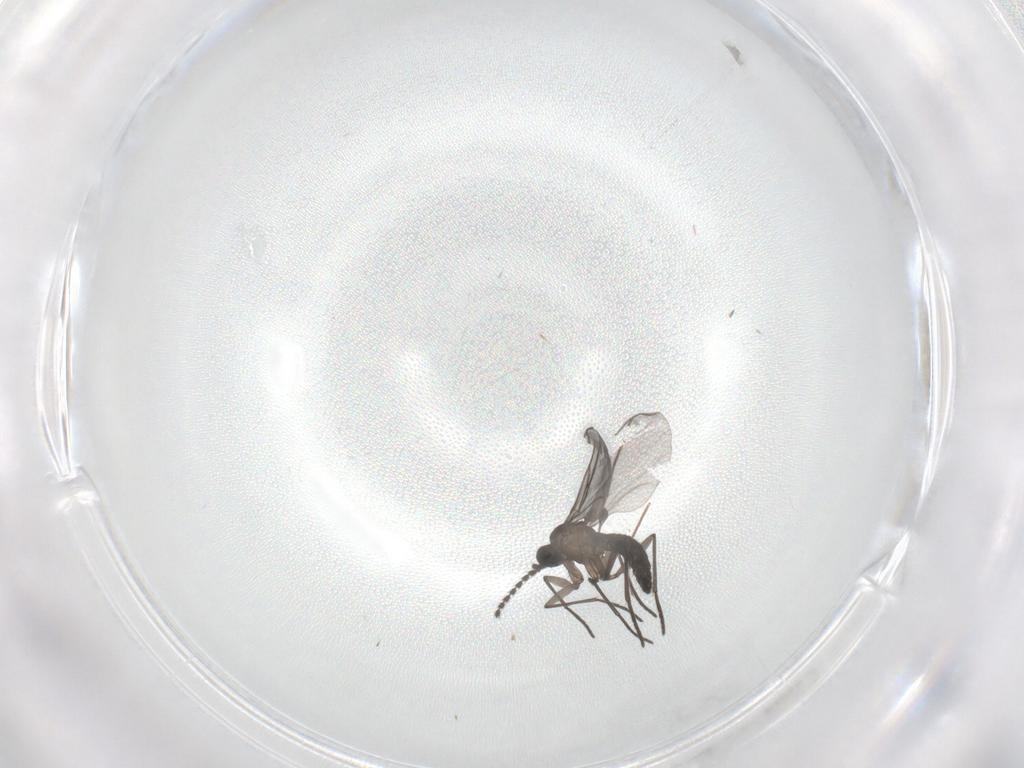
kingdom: Animalia
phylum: Arthropoda
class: Insecta
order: Diptera
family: Chironomidae
